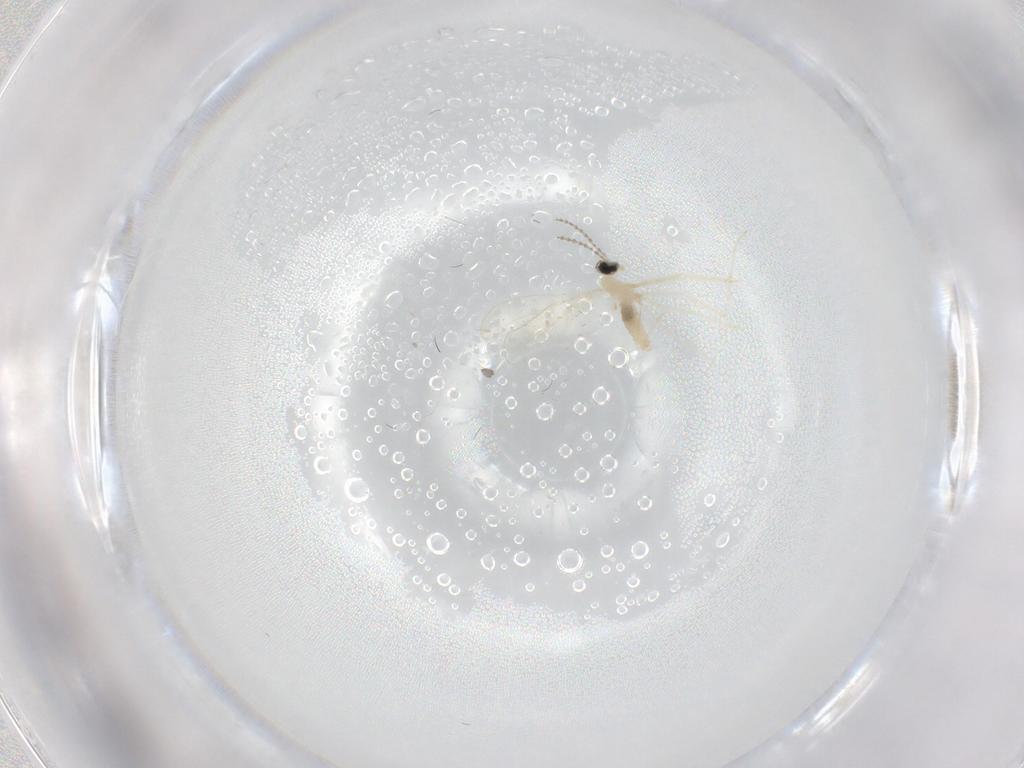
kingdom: Animalia
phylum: Arthropoda
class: Insecta
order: Diptera
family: Cecidomyiidae
